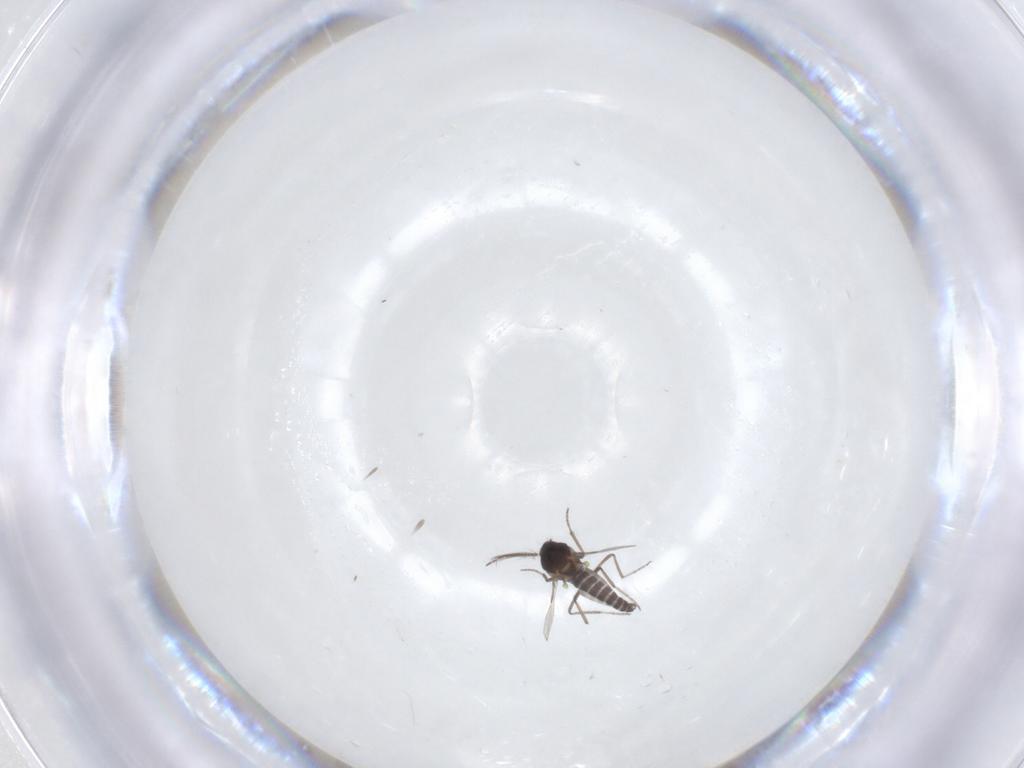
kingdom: Animalia
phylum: Arthropoda
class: Insecta
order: Diptera
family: Ceratopogonidae
